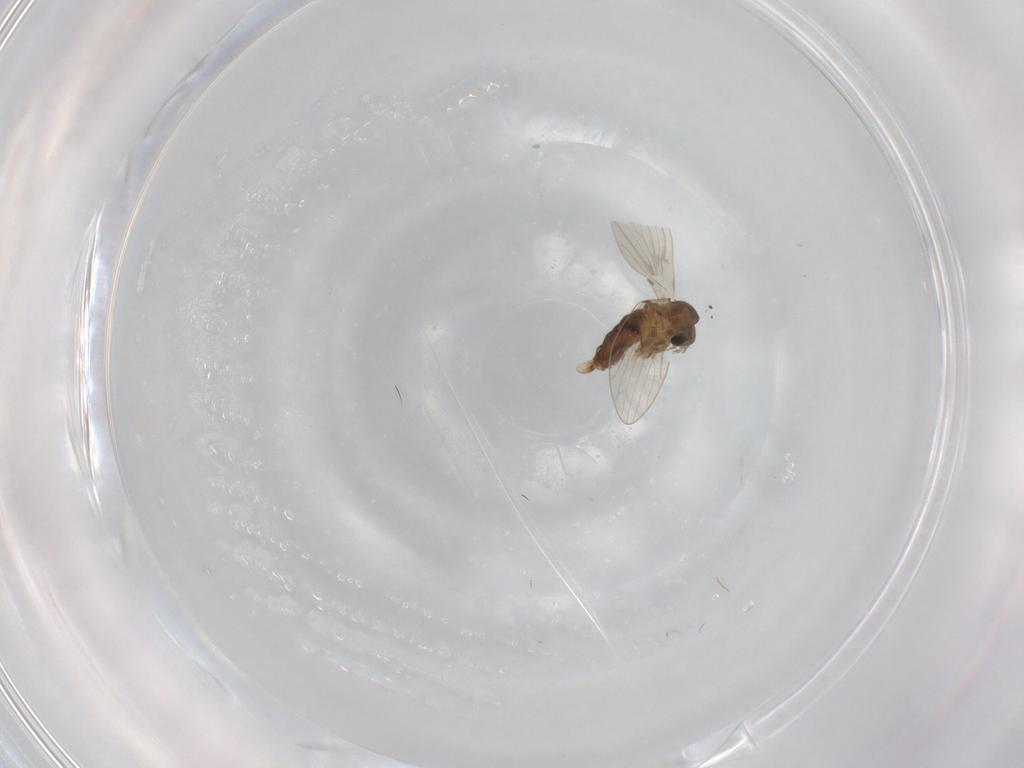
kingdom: Animalia
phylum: Arthropoda
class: Insecta
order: Diptera
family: Psychodidae
